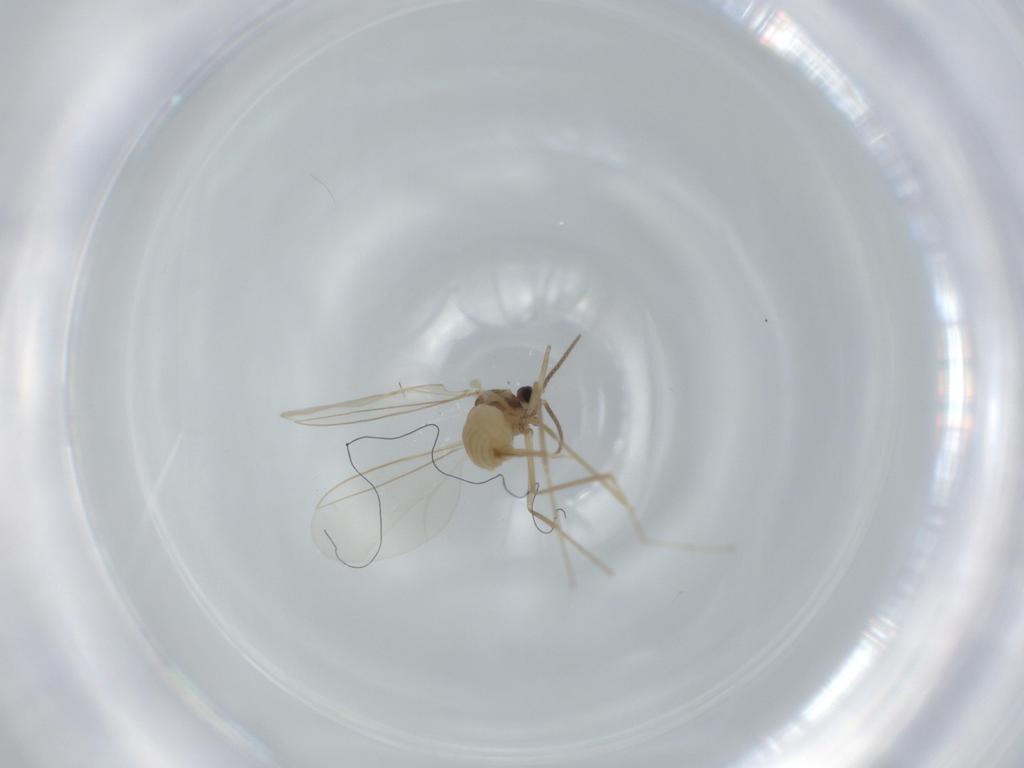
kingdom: Animalia
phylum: Arthropoda
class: Insecta
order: Diptera
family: Cecidomyiidae
